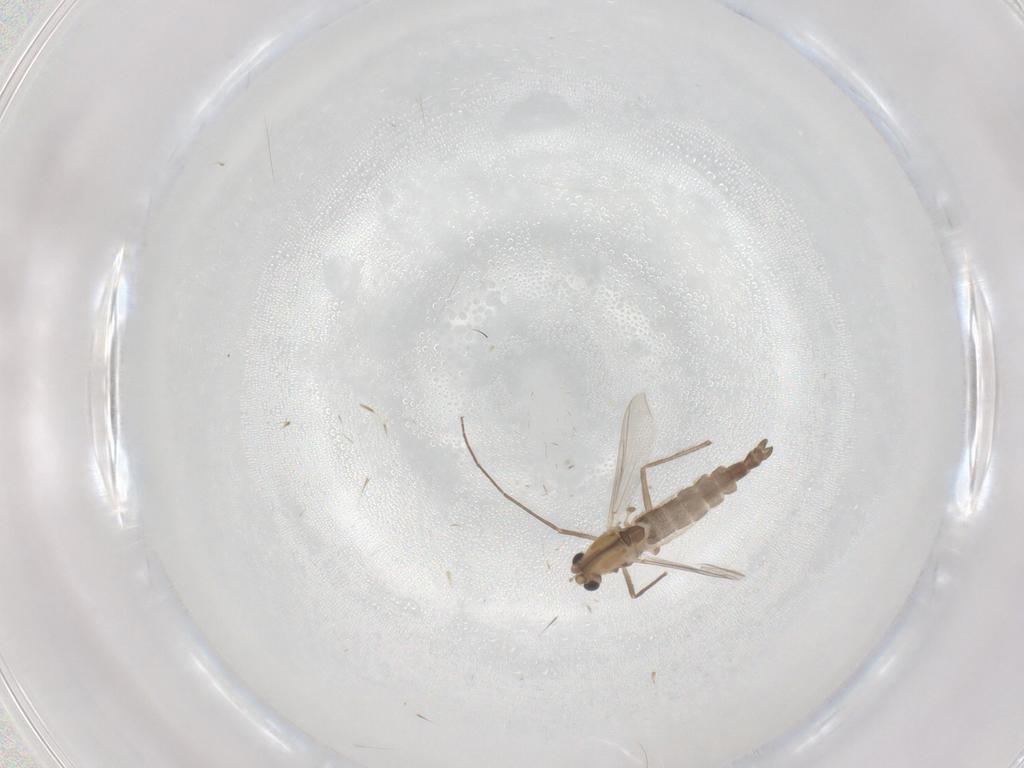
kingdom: Animalia
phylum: Arthropoda
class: Insecta
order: Diptera
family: Chironomidae
